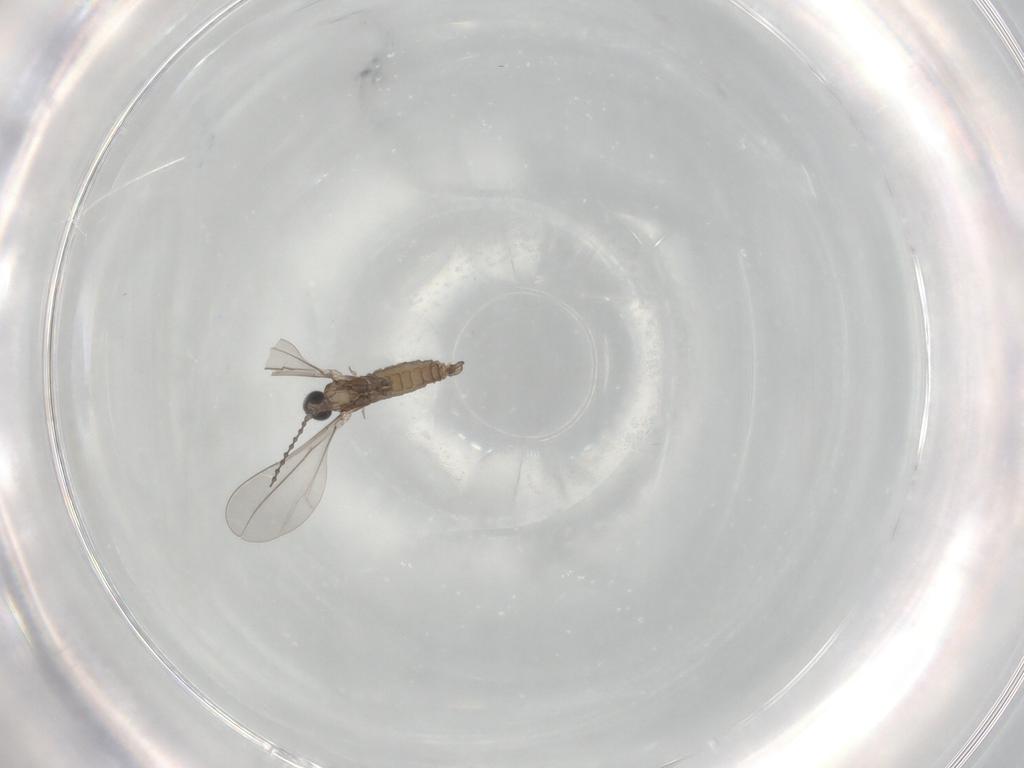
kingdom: Animalia
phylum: Arthropoda
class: Insecta
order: Diptera
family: Cecidomyiidae
